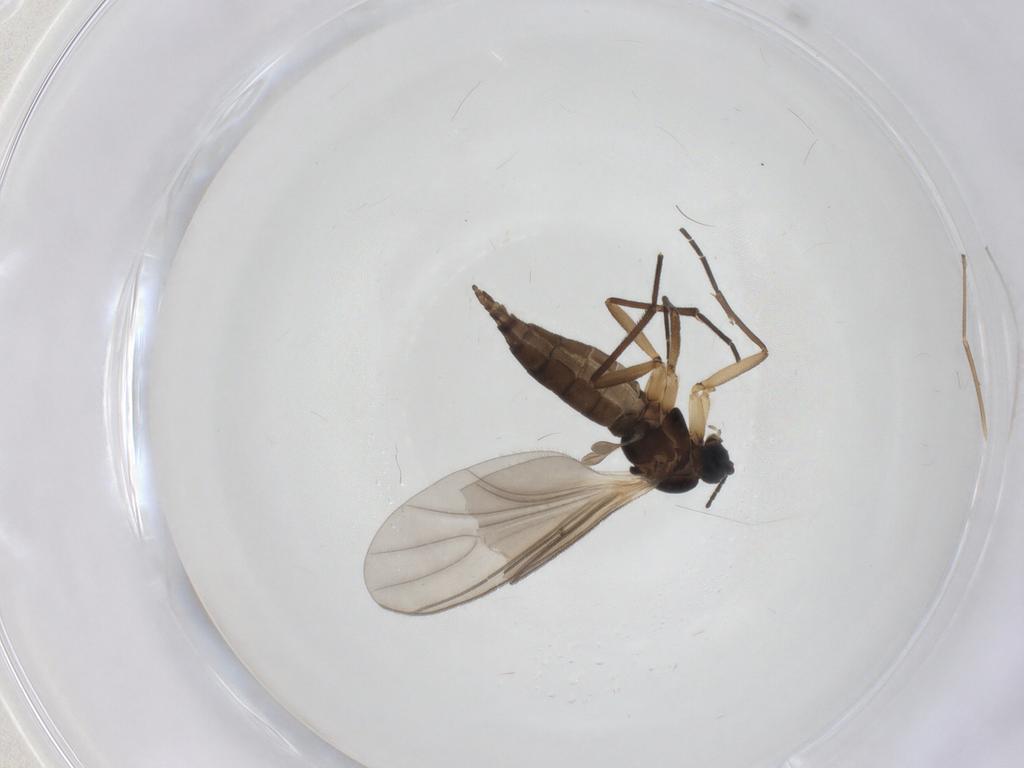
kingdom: Animalia
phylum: Arthropoda
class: Insecta
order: Diptera
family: Sciaridae
